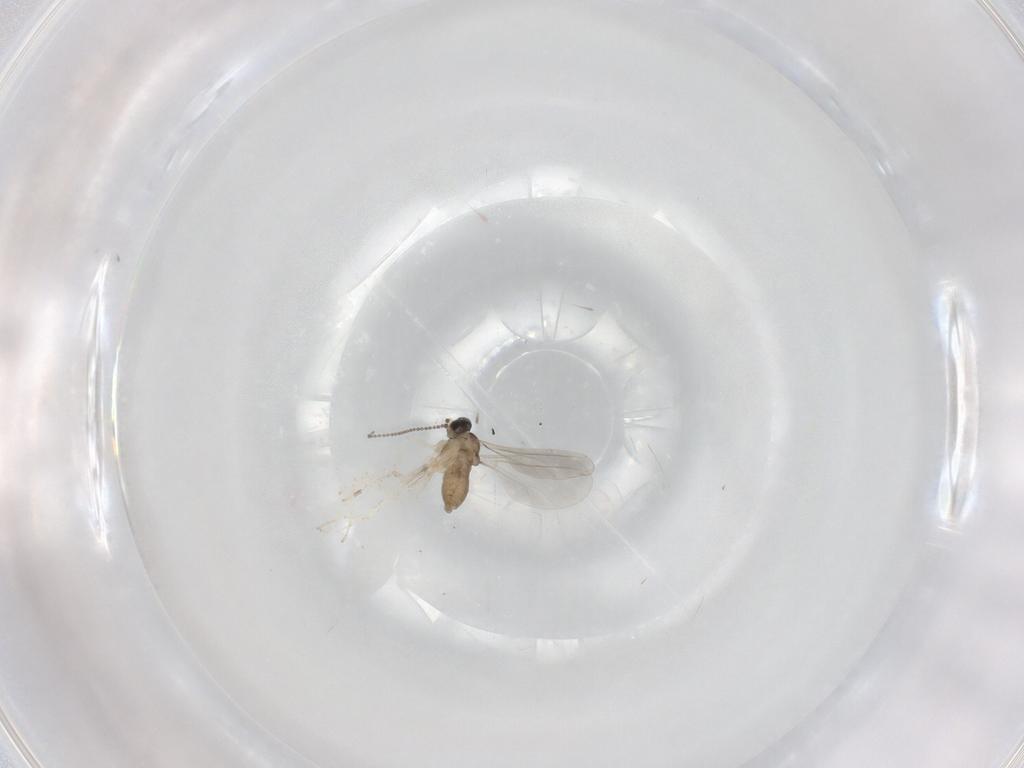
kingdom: Animalia
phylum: Arthropoda
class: Insecta
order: Diptera
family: Cecidomyiidae
